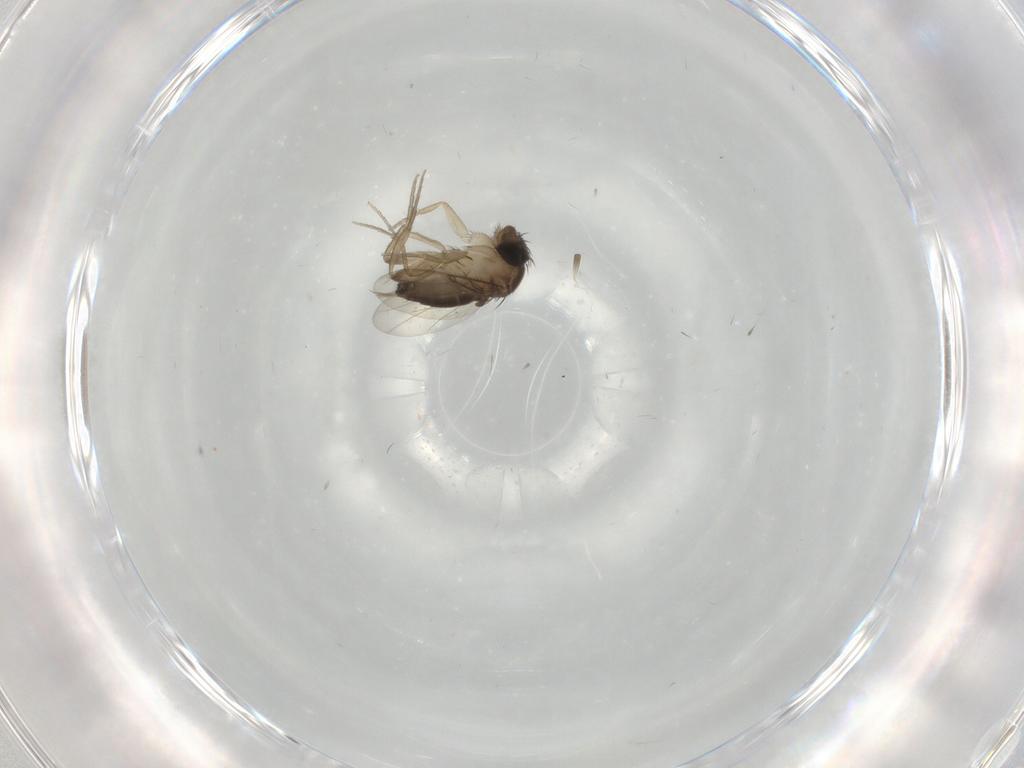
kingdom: Animalia
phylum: Arthropoda
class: Insecta
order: Diptera
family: Phoridae
